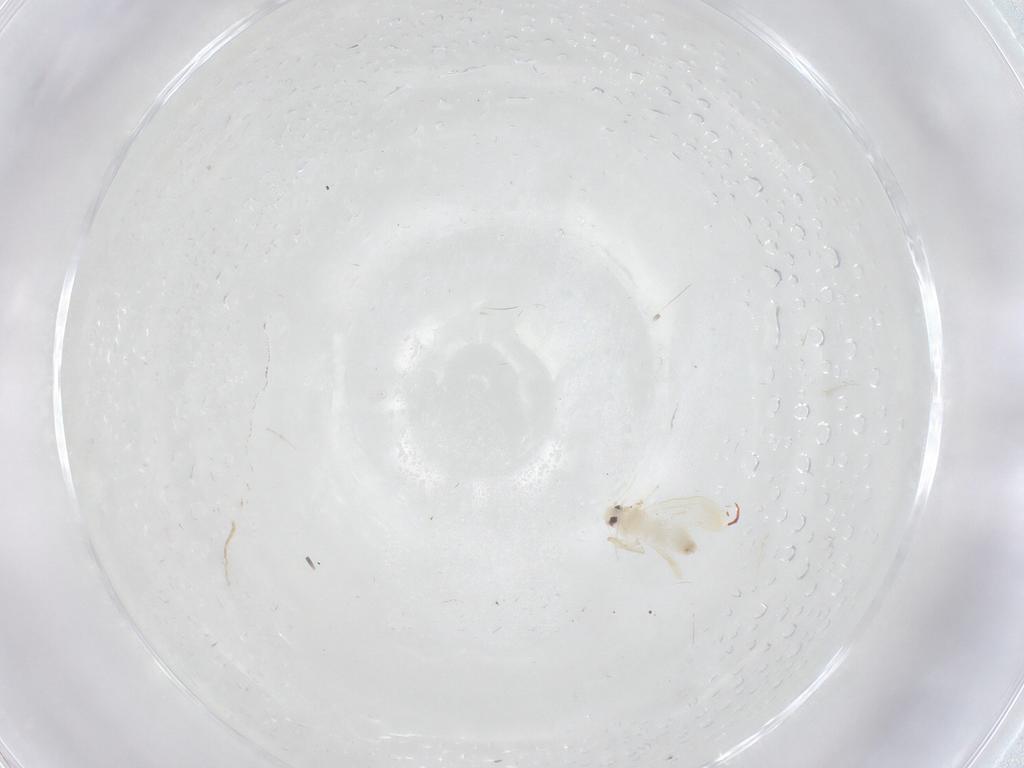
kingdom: Animalia
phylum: Arthropoda
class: Insecta
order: Hemiptera
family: Aleyrodidae
